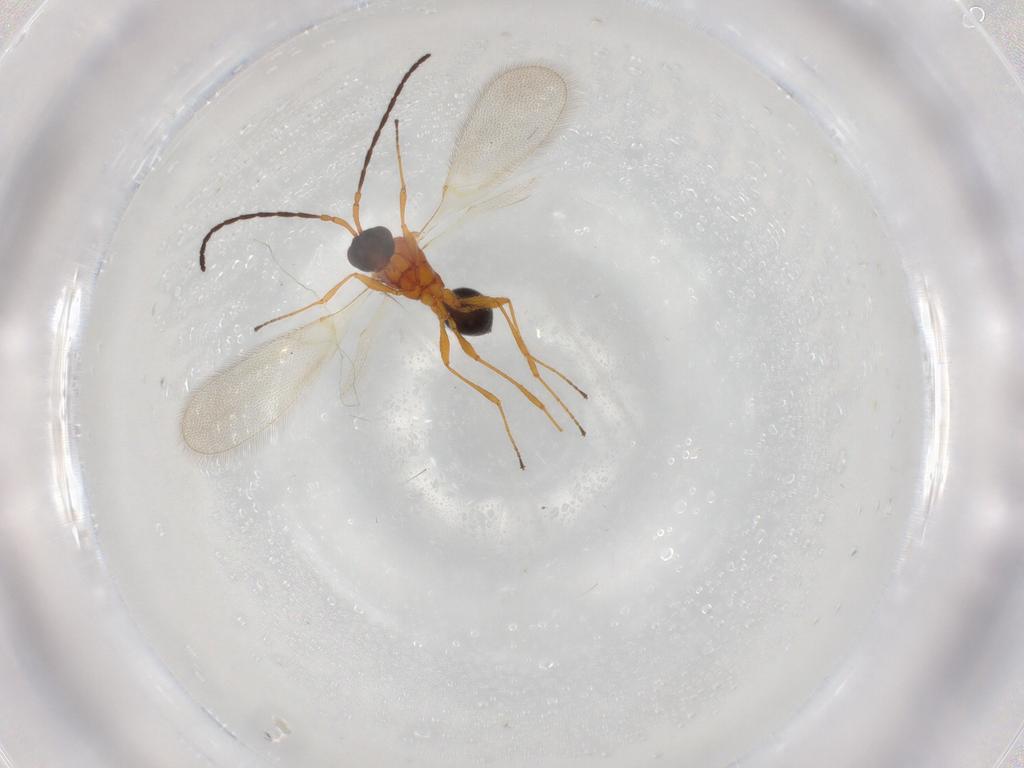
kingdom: Animalia
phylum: Arthropoda
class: Insecta
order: Hymenoptera
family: Diapriidae
